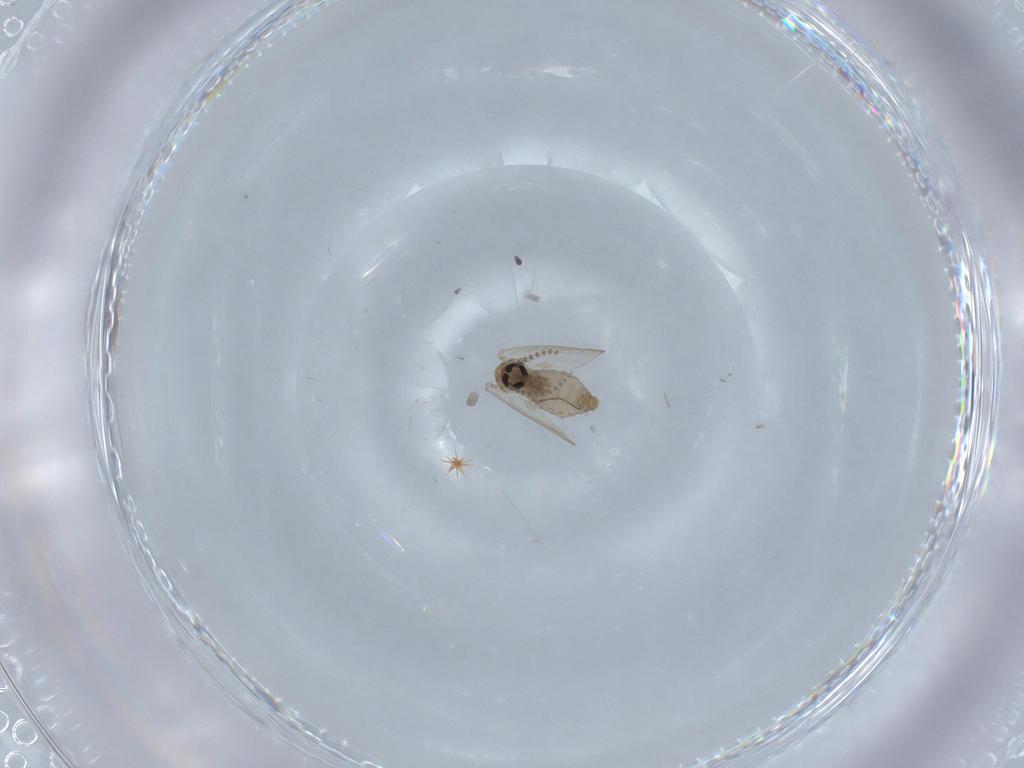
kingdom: Animalia
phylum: Arthropoda
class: Insecta
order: Diptera
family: Psychodidae
